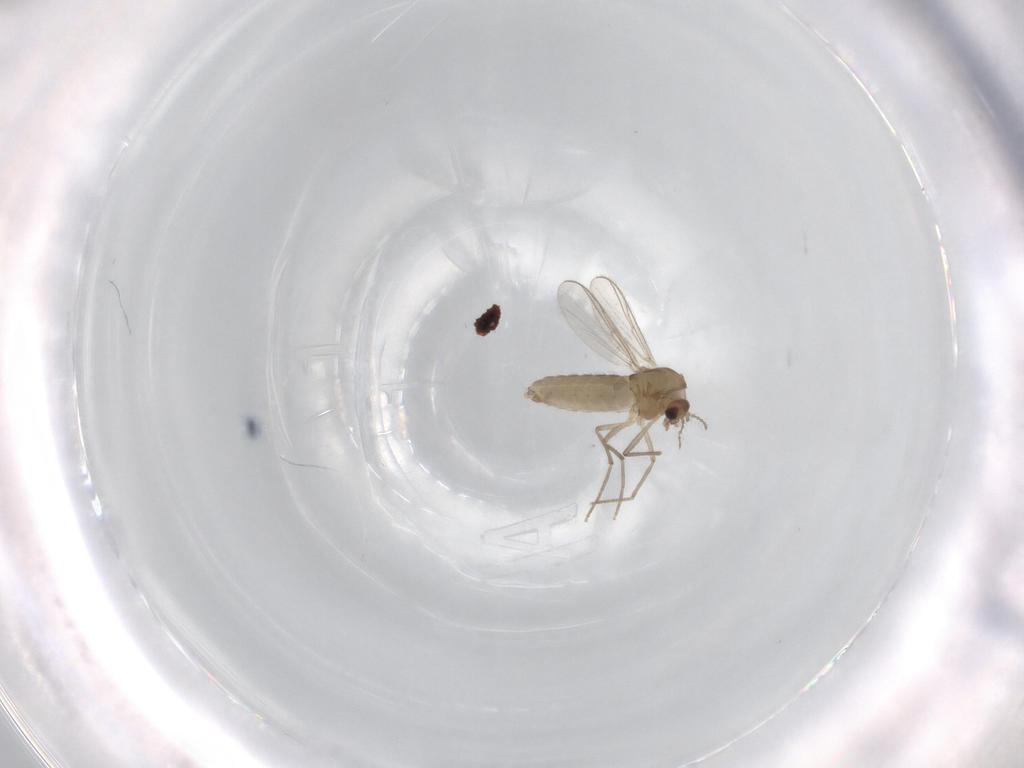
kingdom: Animalia
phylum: Arthropoda
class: Insecta
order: Diptera
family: Chironomidae
